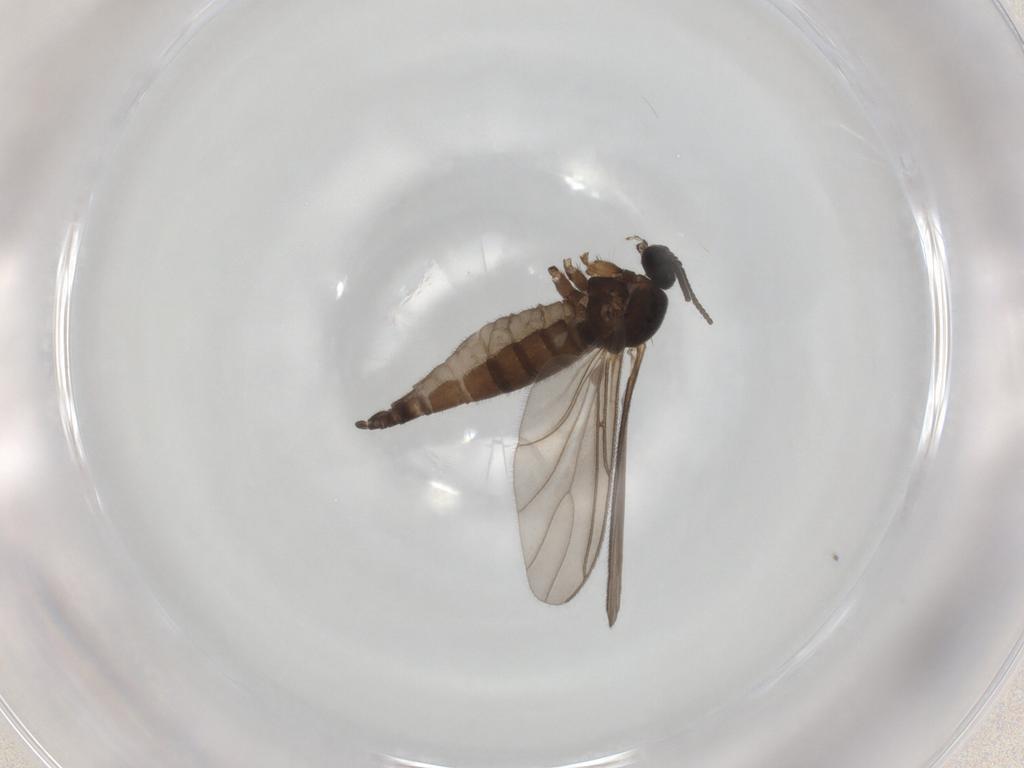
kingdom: Animalia
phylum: Arthropoda
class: Insecta
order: Diptera
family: Sciaridae
